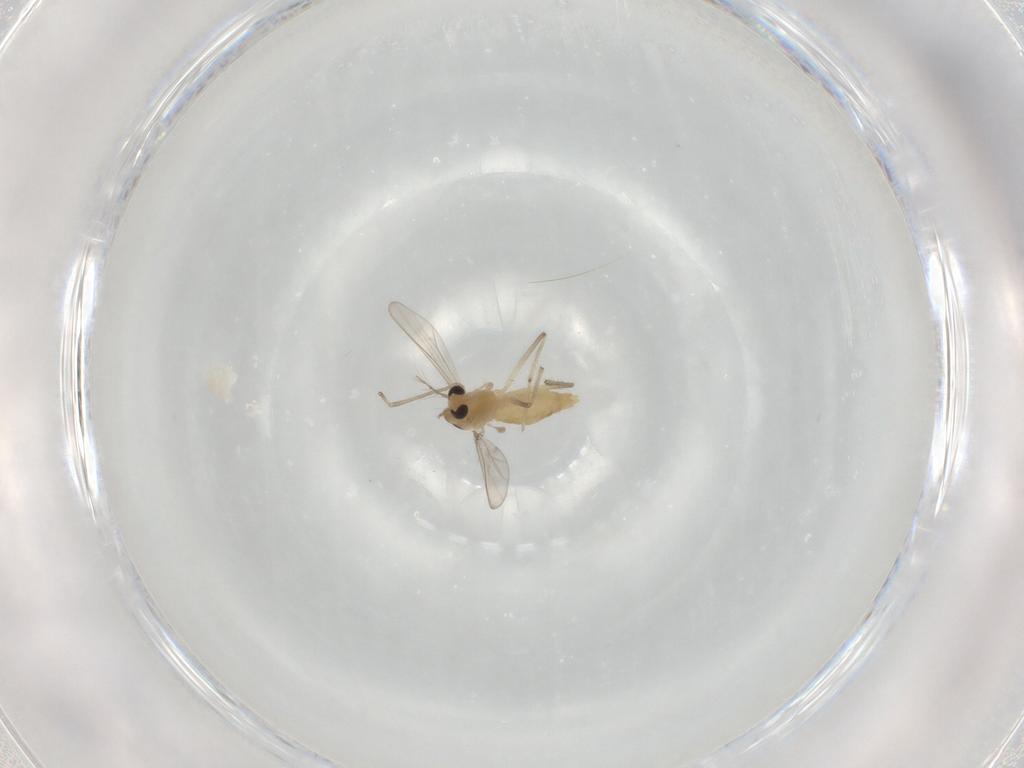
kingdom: Animalia
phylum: Arthropoda
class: Insecta
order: Diptera
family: Chironomidae
